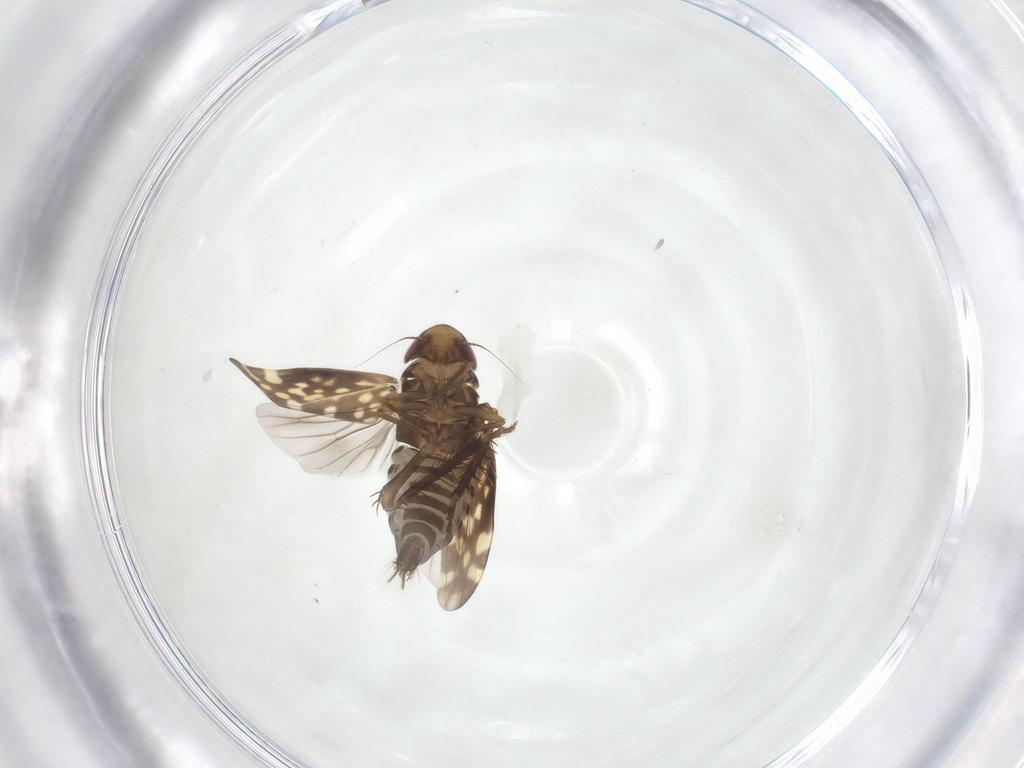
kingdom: Animalia
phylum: Arthropoda
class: Insecta
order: Hemiptera
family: Cicadellidae
